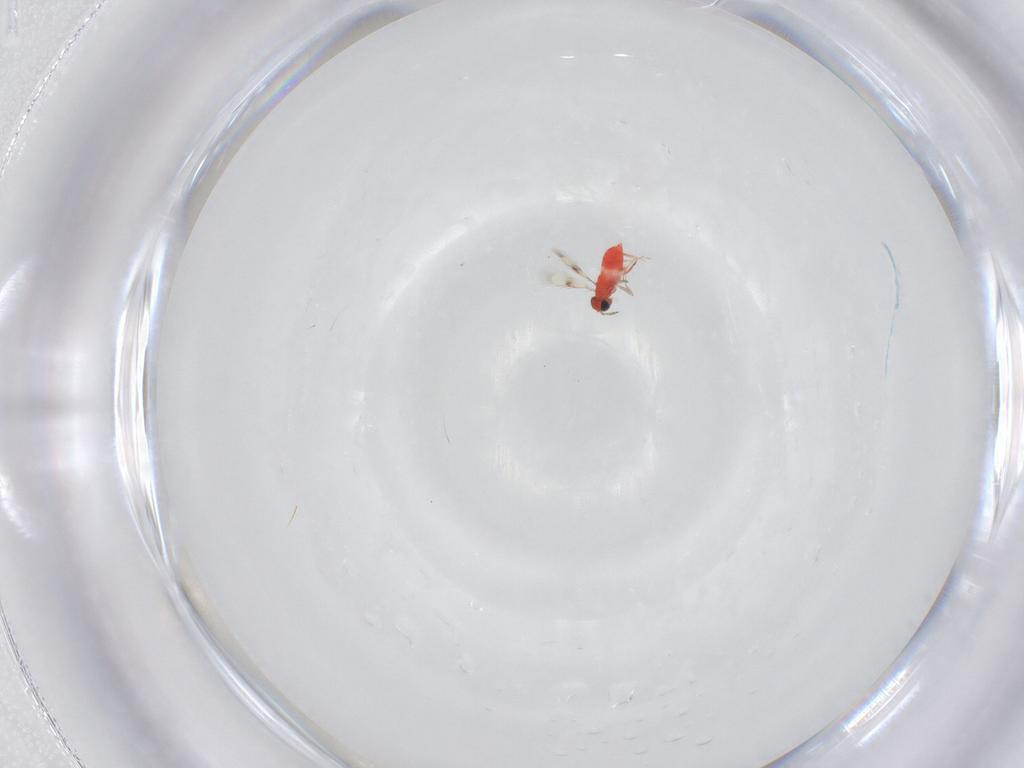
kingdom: Animalia
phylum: Arthropoda
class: Insecta
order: Hymenoptera
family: Trichogrammatidae
